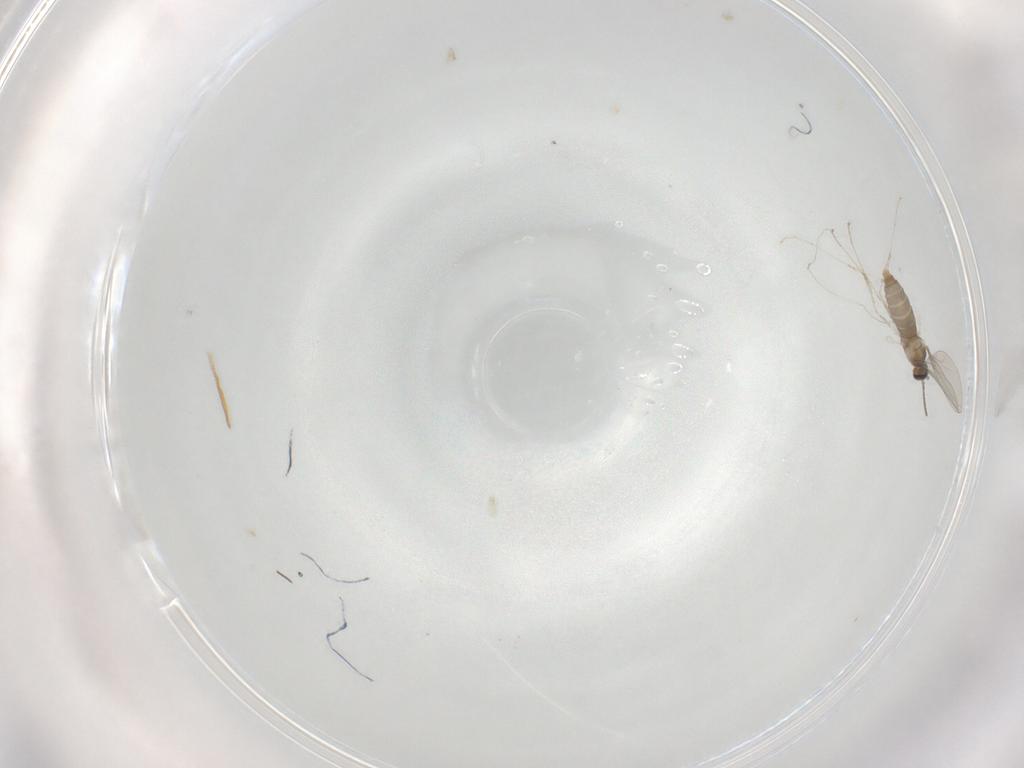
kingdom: Animalia
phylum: Arthropoda
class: Insecta
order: Diptera
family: Cecidomyiidae
